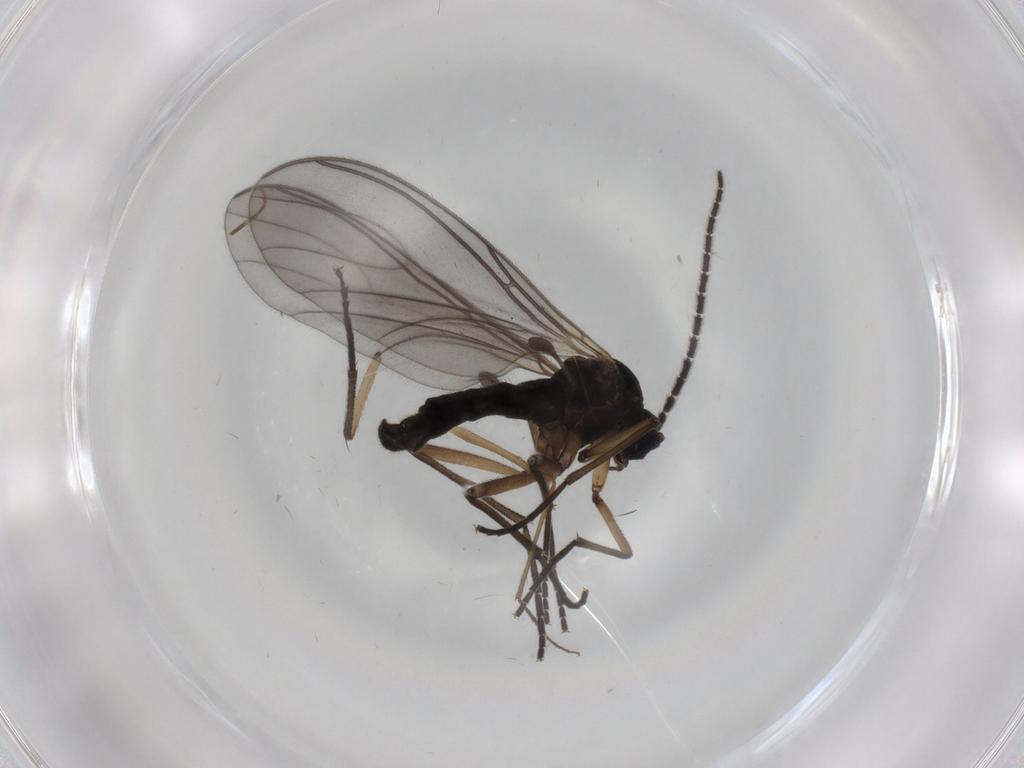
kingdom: Animalia
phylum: Arthropoda
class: Insecta
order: Diptera
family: Sciaridae
